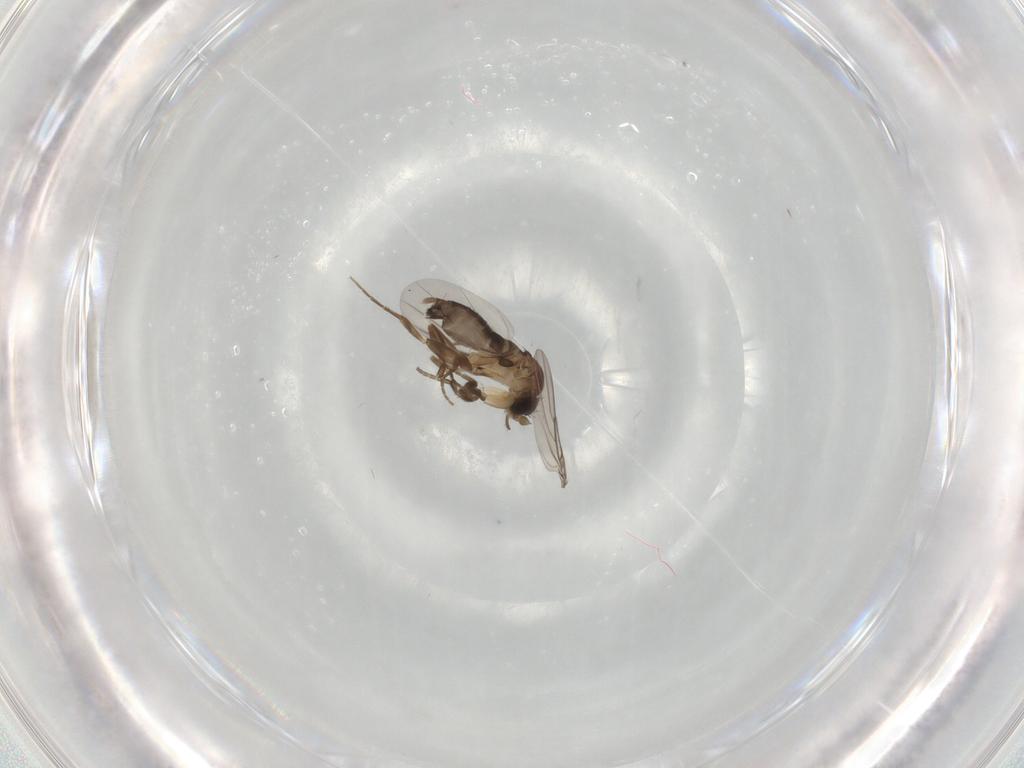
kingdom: Animalia
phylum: Arthropoda
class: Insecta
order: Diptera
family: Phoridae
